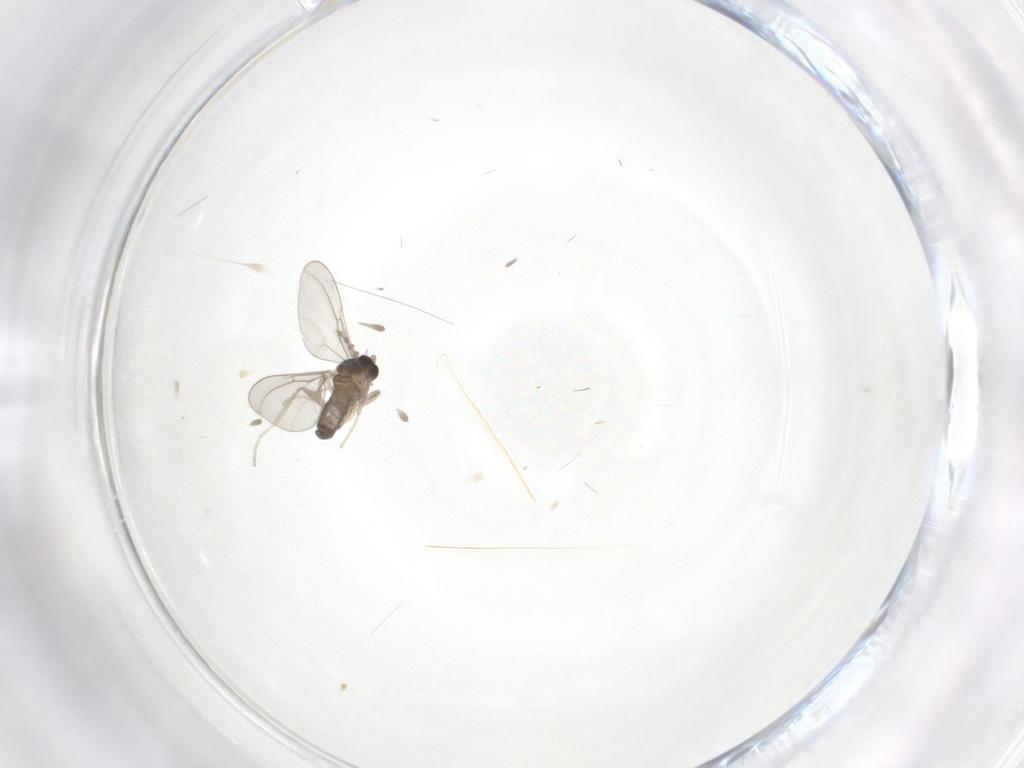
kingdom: Animalia
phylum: Arthropoda
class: Insecta
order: Diptera
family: Cecidomyiidae
